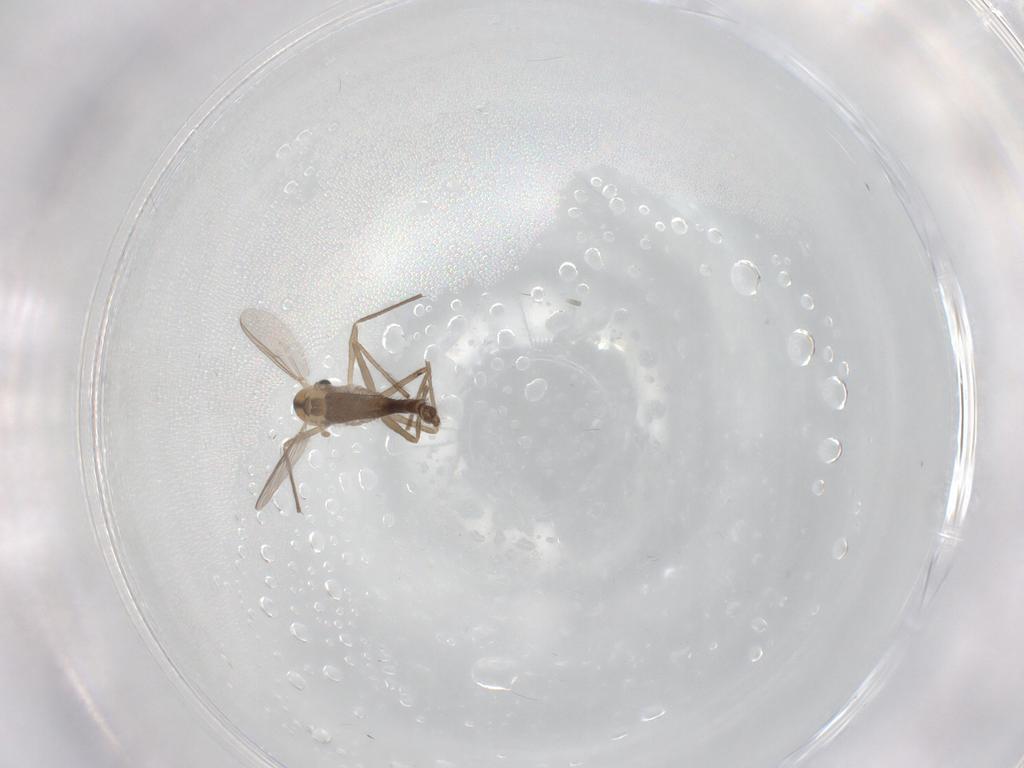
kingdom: Animalia
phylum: Arthropoda
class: Insecta
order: Diptera
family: Chironomidae
